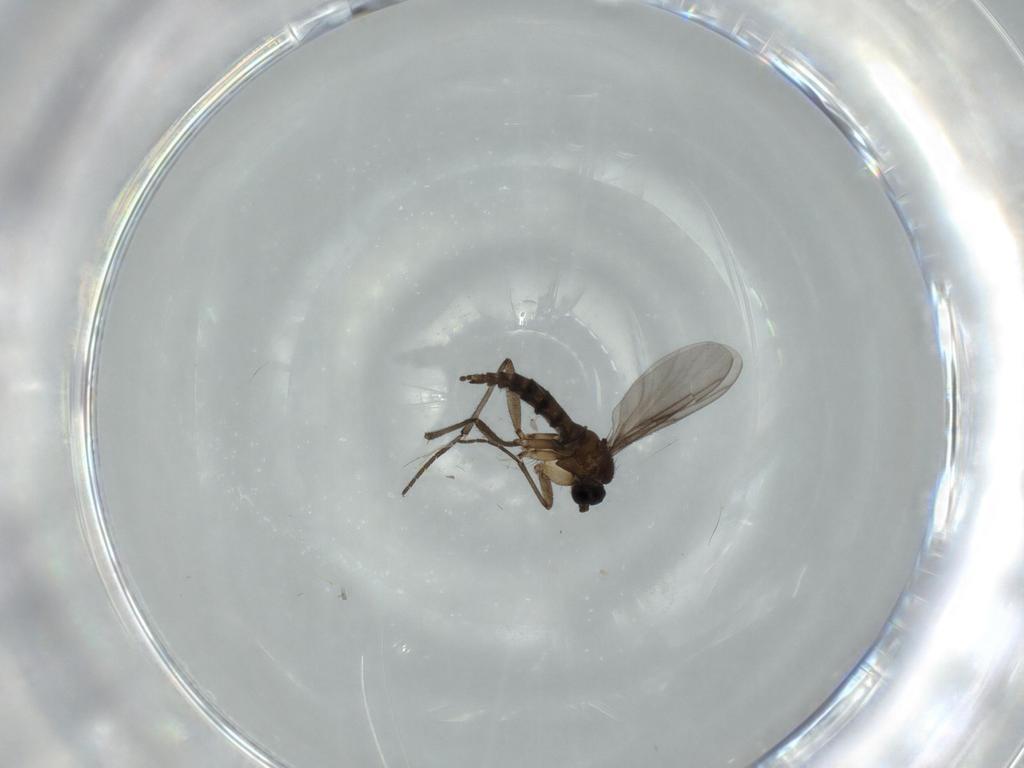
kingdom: Animalia
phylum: Arthropoda
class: Insecta
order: Diptera
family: Sciaridae
